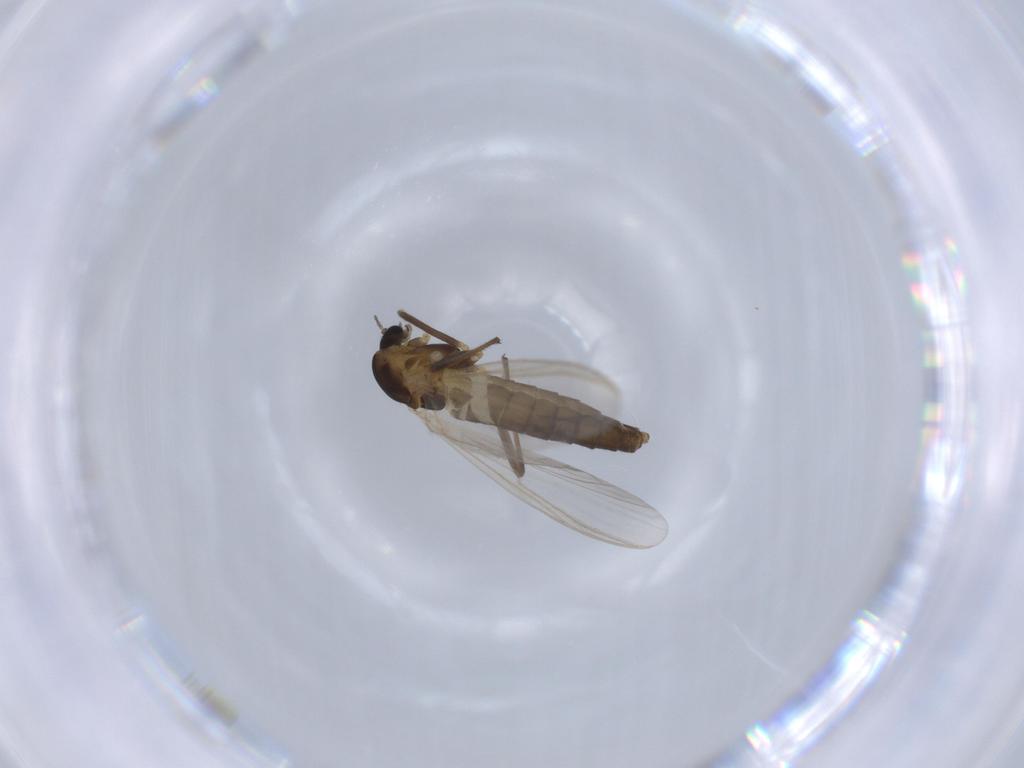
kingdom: Animalia
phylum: Arthropoda
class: Insecta
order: Diptera
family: Chironomidae
